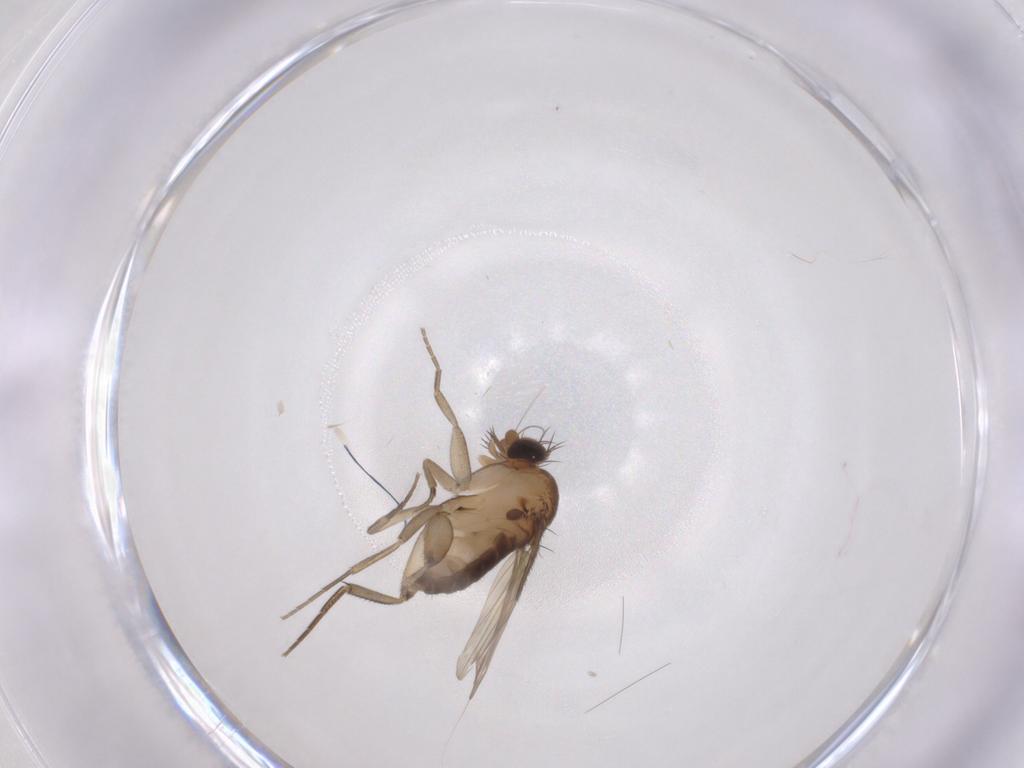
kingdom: Animalia
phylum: Arthropoda
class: Insecta
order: Diptera
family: Phoridae
